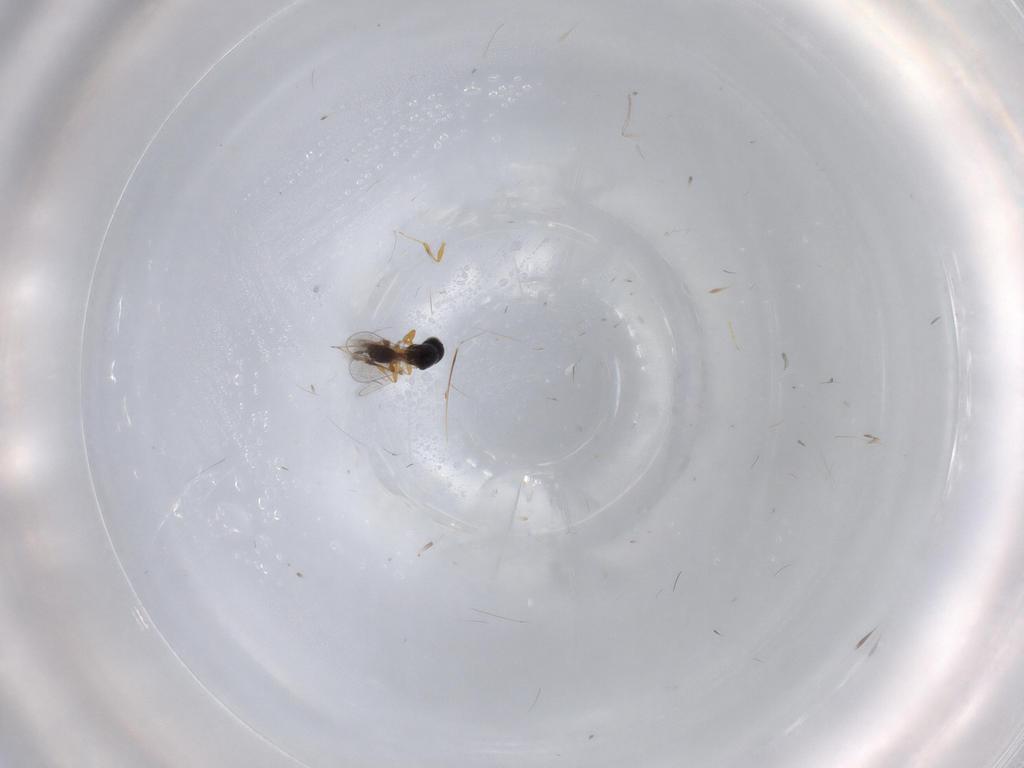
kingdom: Animalia
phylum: Arthropoda
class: Insecta
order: Hymenoptera
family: Platygastridae
